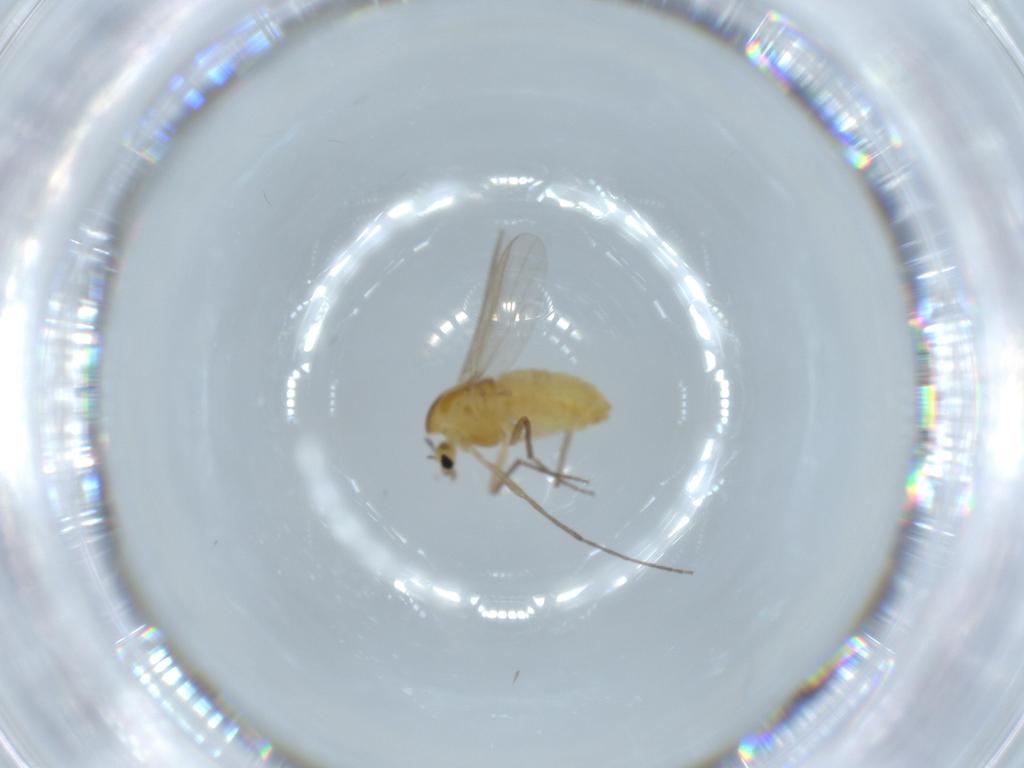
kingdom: Animalia
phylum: Arthropoda
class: Insecta
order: Diptera
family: Chironomidae
